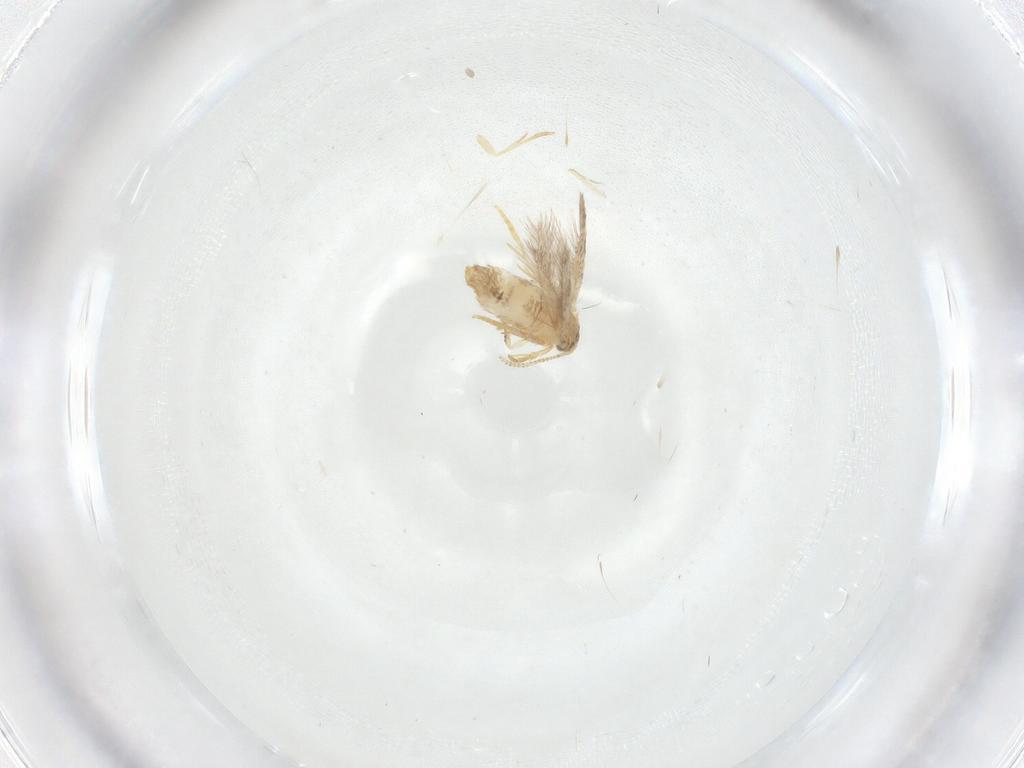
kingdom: Animalia
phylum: Arthropoda
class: Insecta
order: Lepidoptera
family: Nepticulidae
